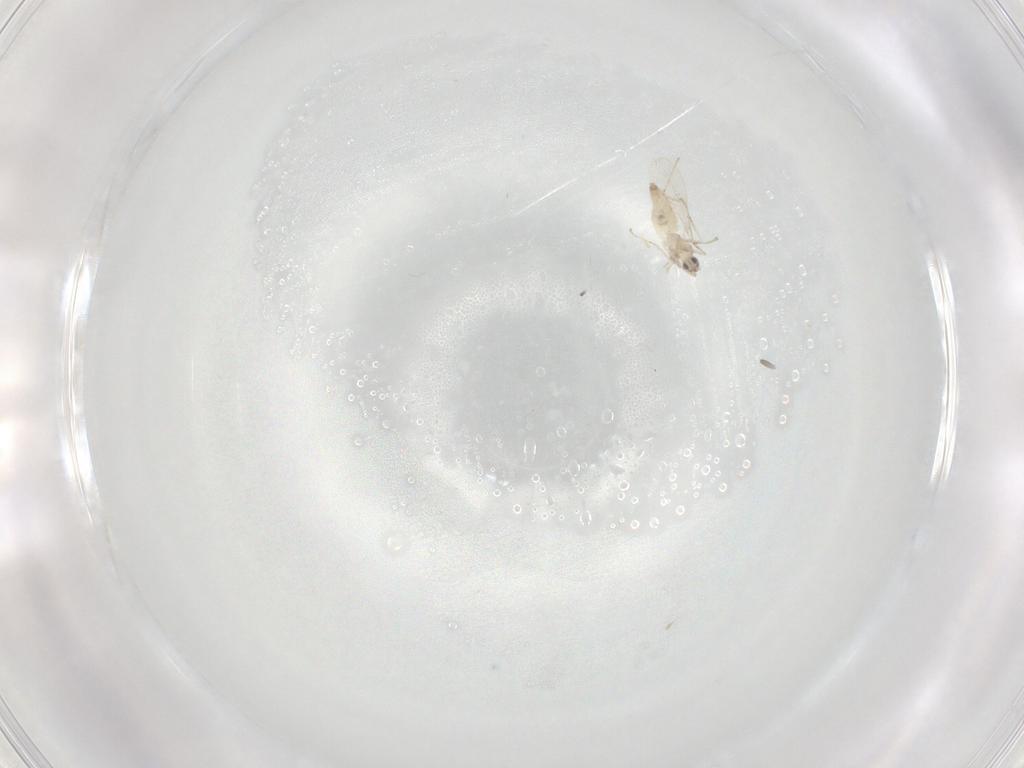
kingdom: Animalia
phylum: Arthropoda
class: Insecta
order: Diptera
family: Cecidomyiidae
